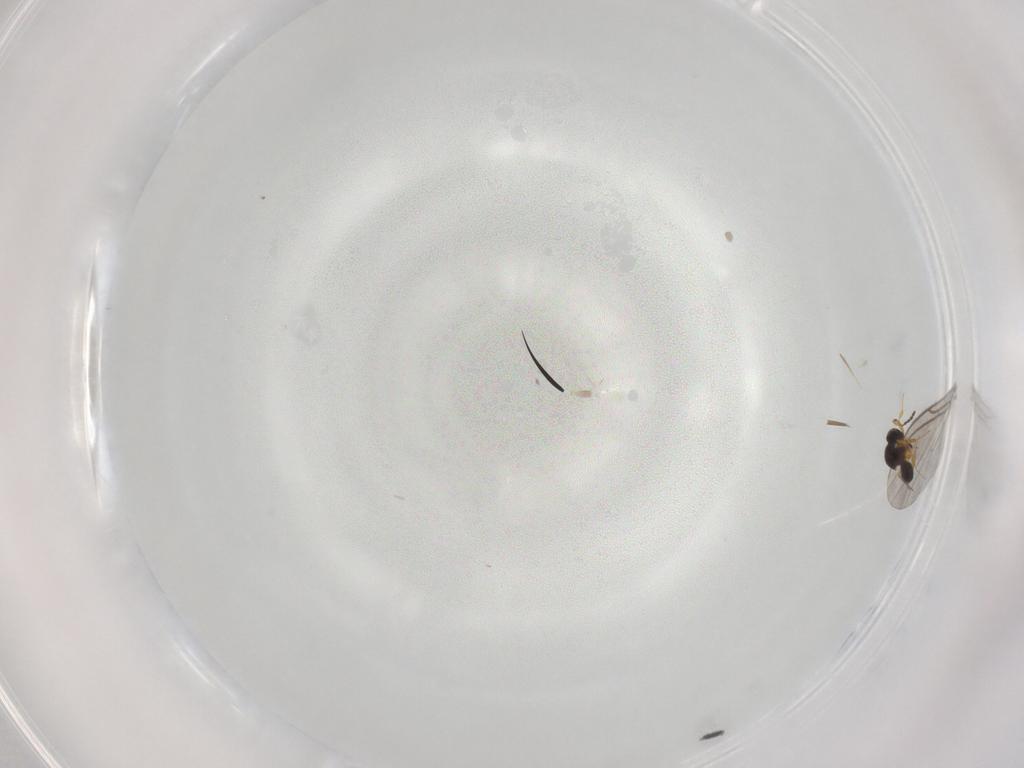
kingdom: Animalia
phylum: Arthropoda
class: Insecta
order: Hymenoptera
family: Platygastridae
